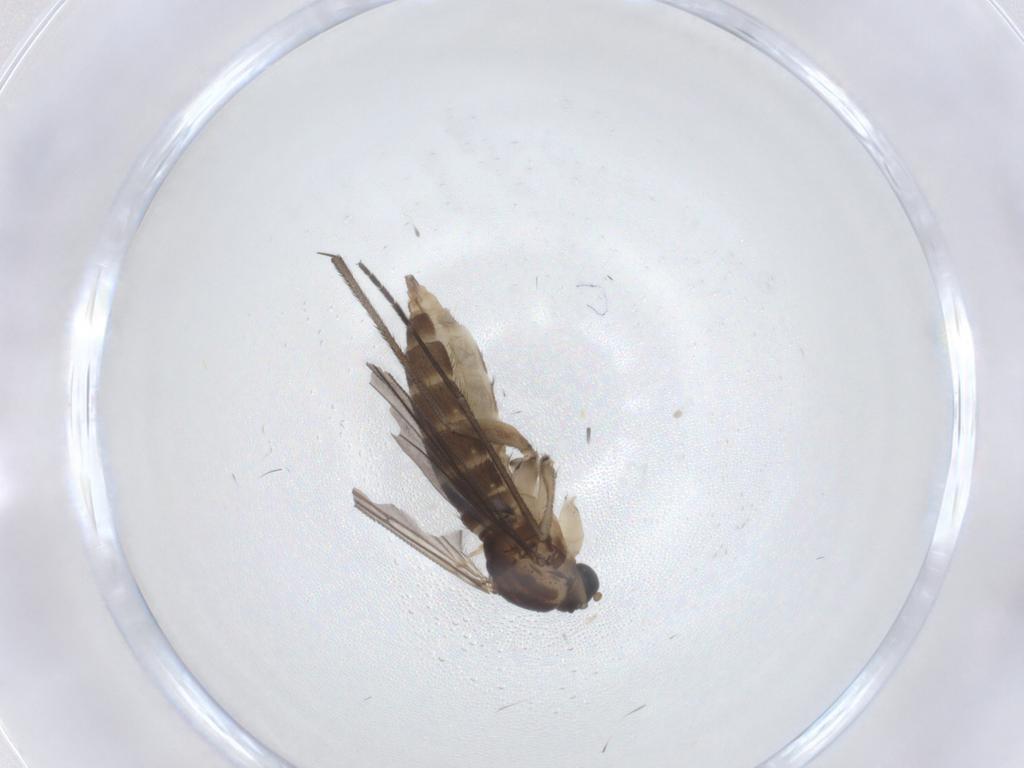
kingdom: Animalia
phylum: Arthropoda
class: Insecta
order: Diptera
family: Sciaridae
